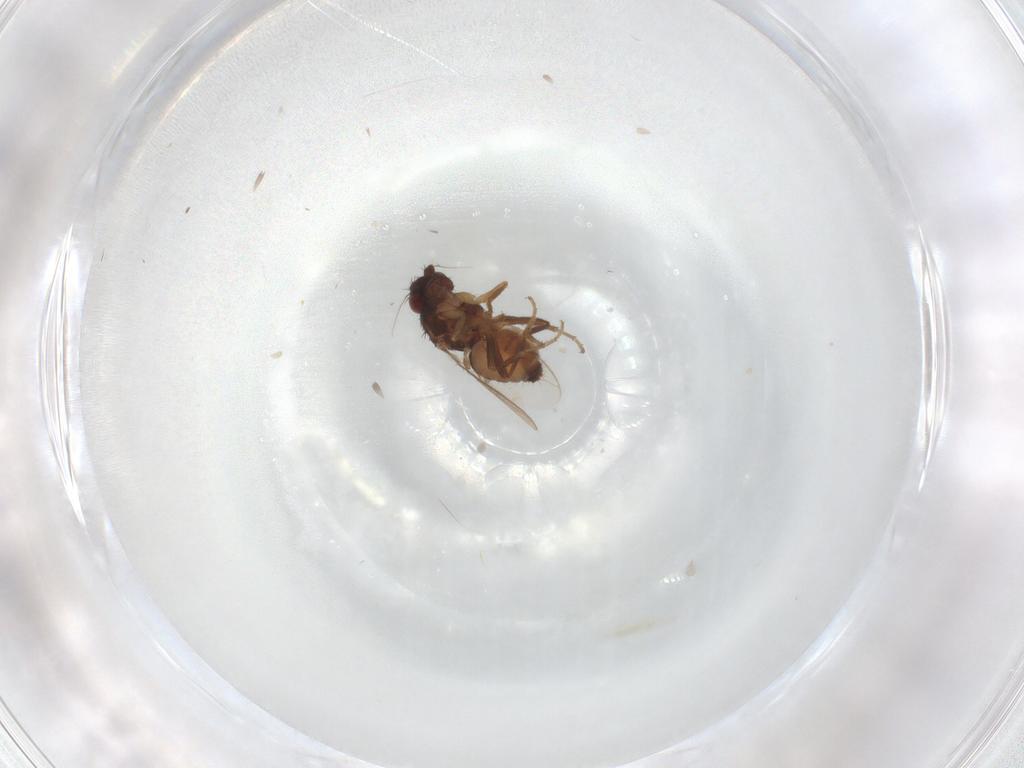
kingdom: Animalia
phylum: Arthropoda
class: Insecta
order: Diptera
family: Sphaeroceridae
